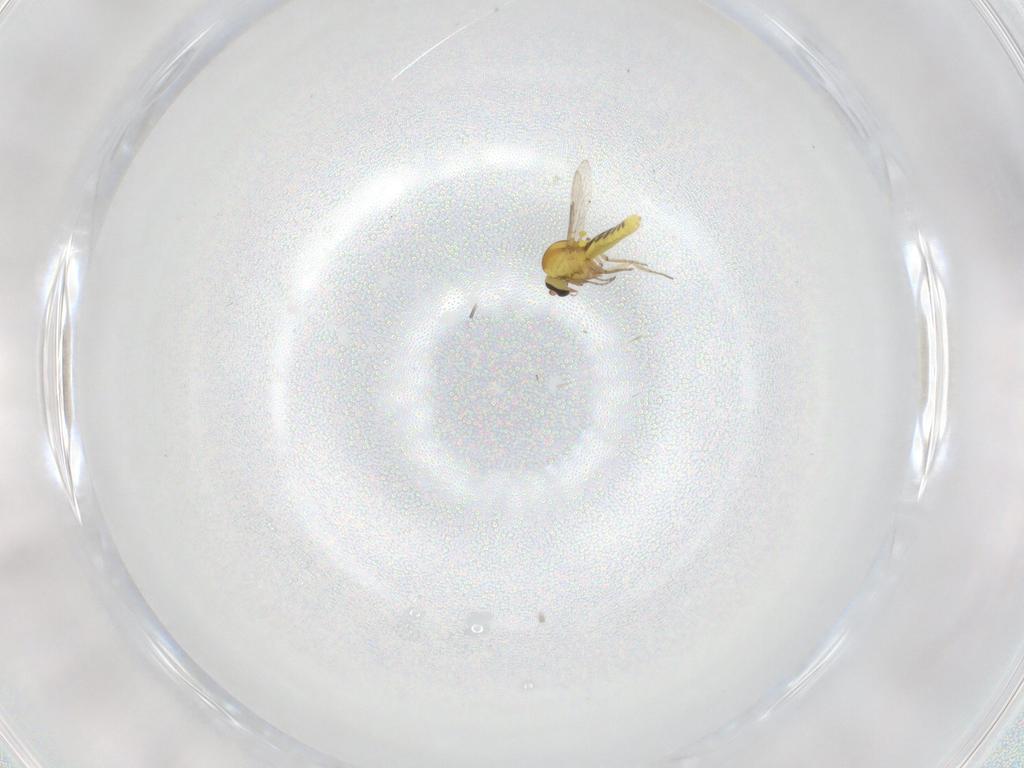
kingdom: Animalia
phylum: Arthropoda
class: Insecta
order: Diptera
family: Ceratopogonidae
